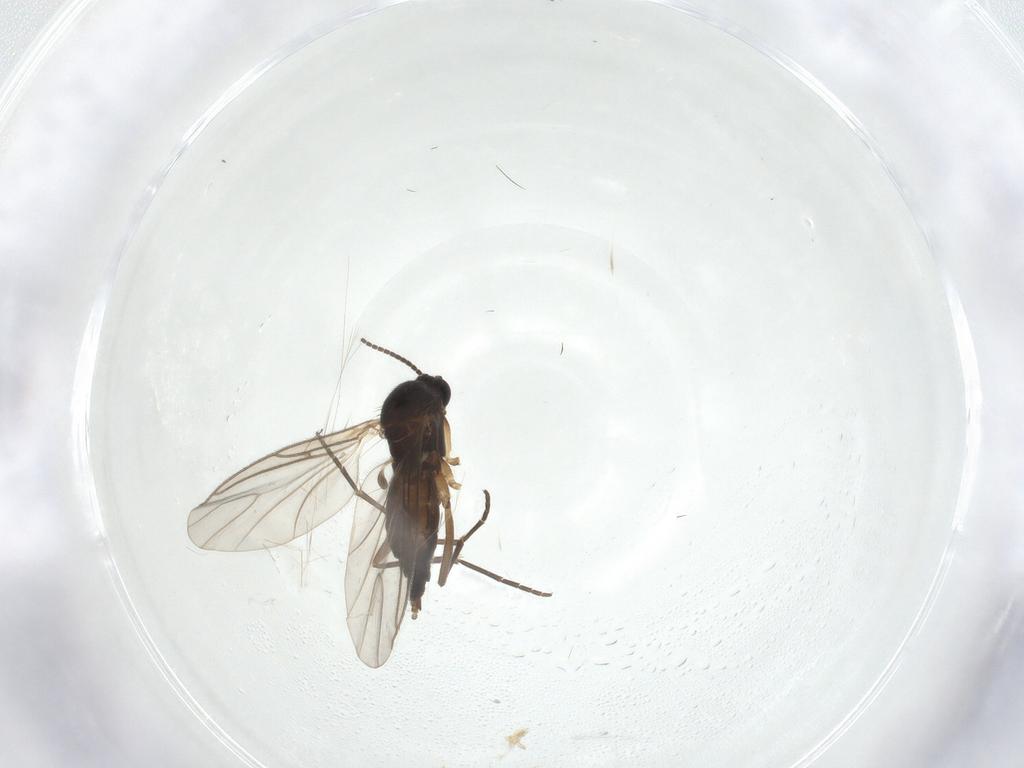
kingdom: Animalia
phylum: Arthropoda
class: Insecta
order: Diptera
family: Sciaridae
